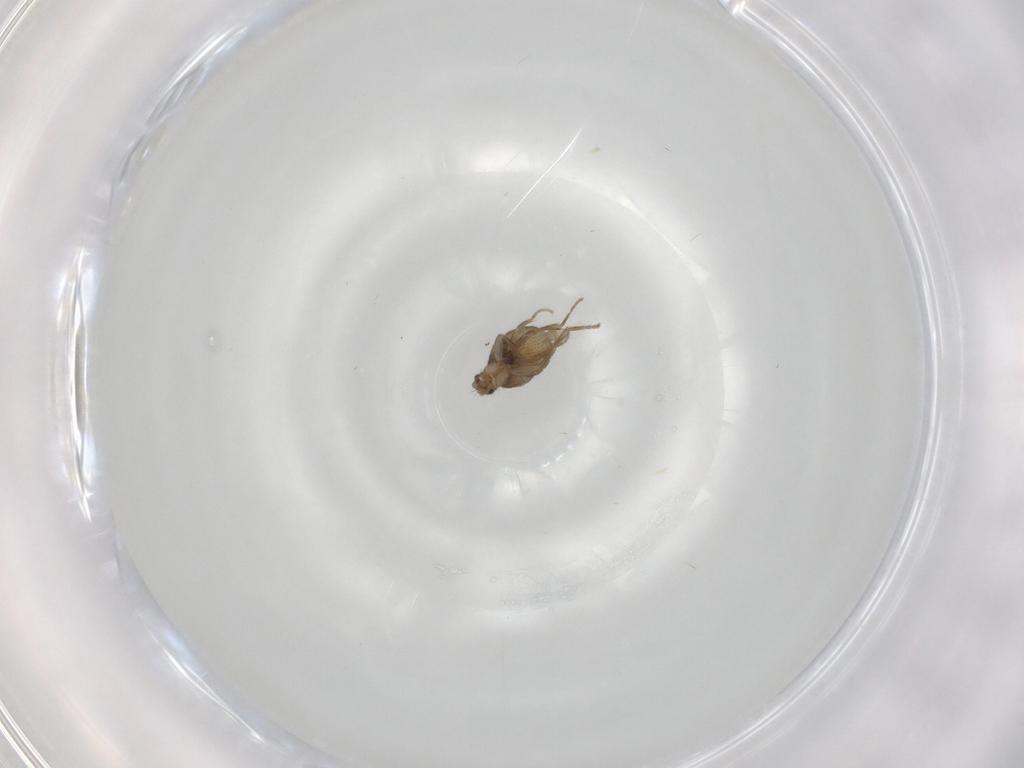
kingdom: Animalia
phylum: Arthropoda
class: Insecta
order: Diptera
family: Phoridae
